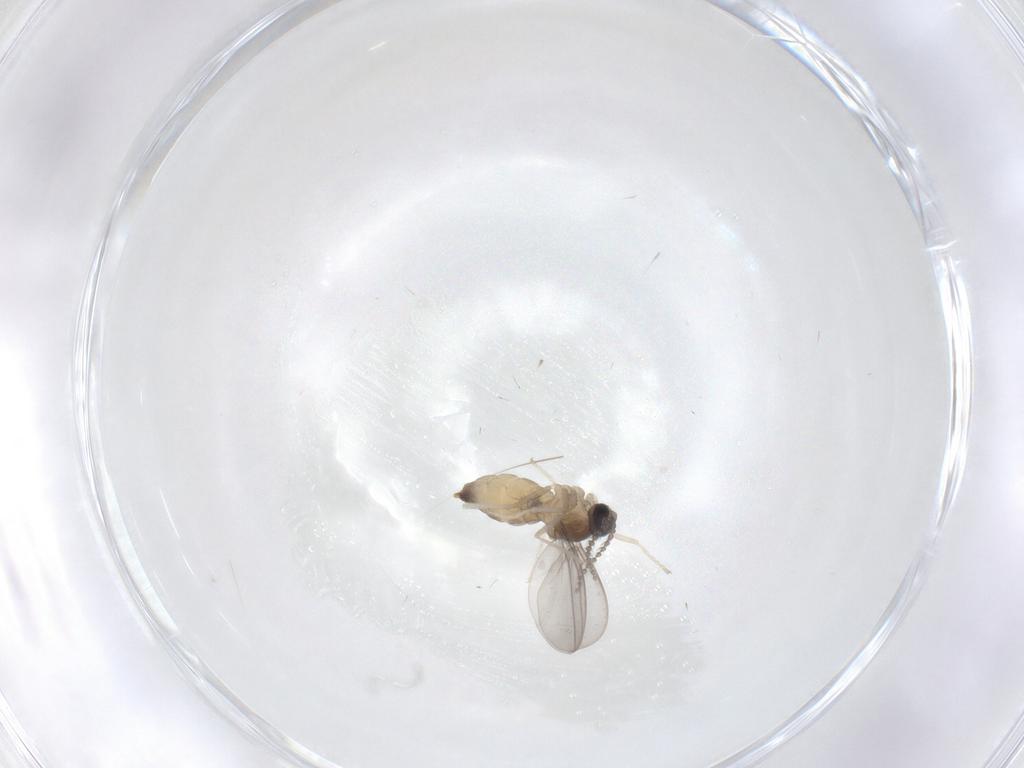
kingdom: Animalia
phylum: Arthropoda
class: Insecta
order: Diptera
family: Cecidomyiidae
